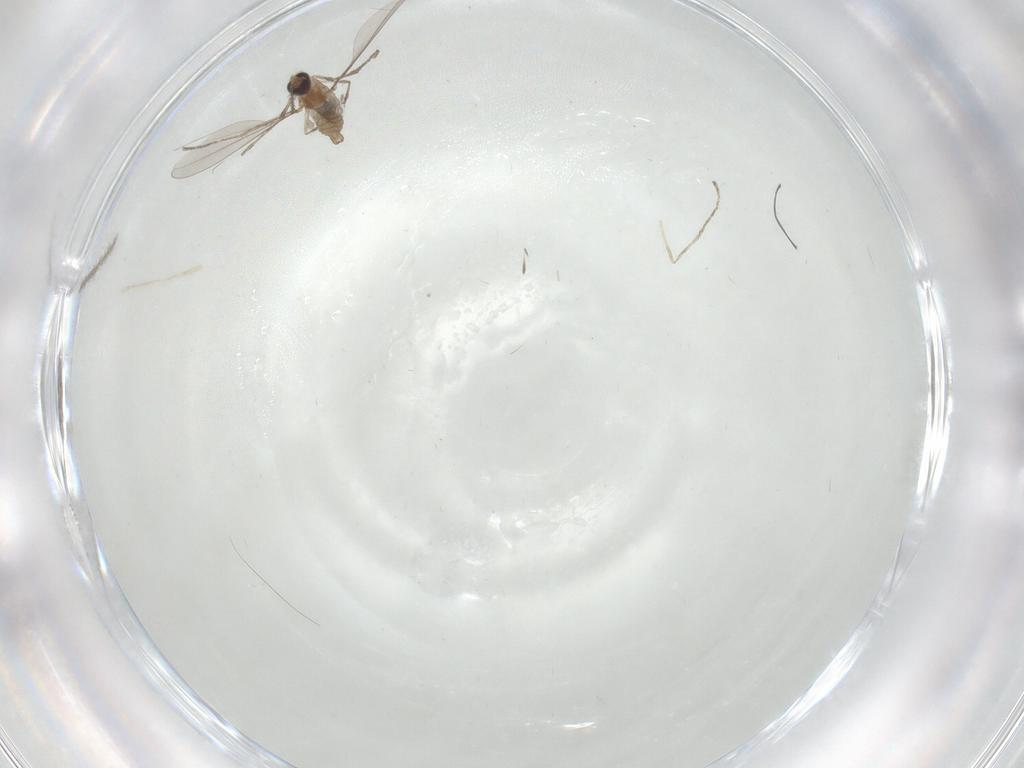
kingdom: Animalia
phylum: Arthropoda
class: Insecta
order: Diptera
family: Cecidomyiidae
